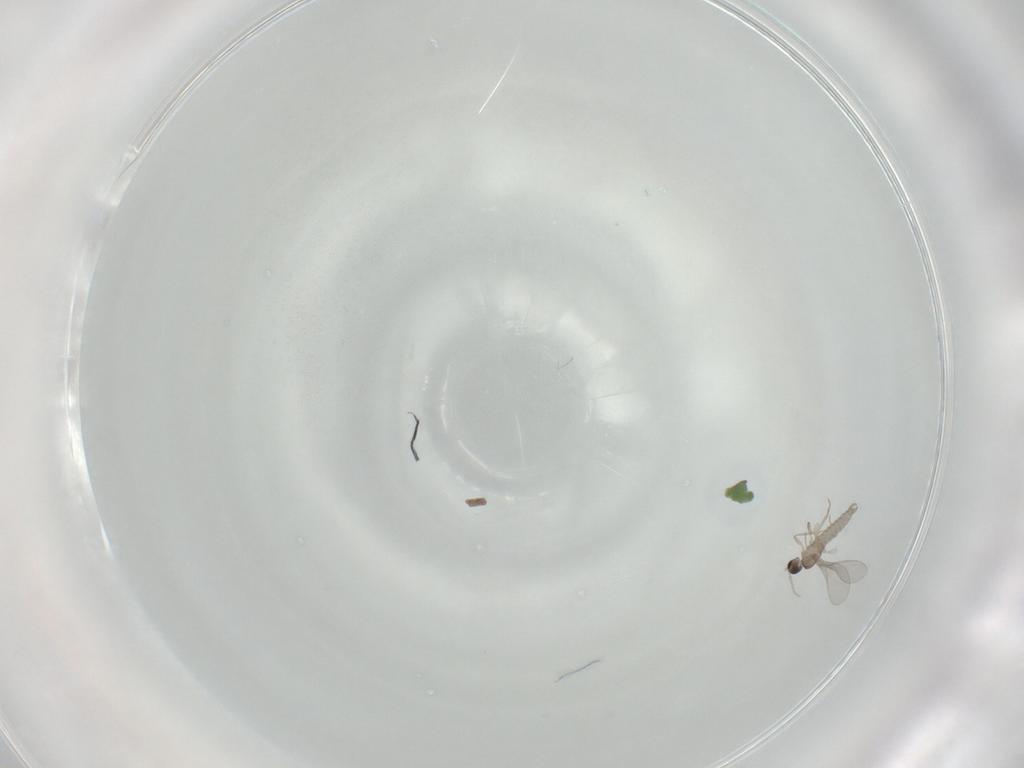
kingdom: Animalia
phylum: Arthropoda
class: Insecta
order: Diptera
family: Cecidomyiidae
